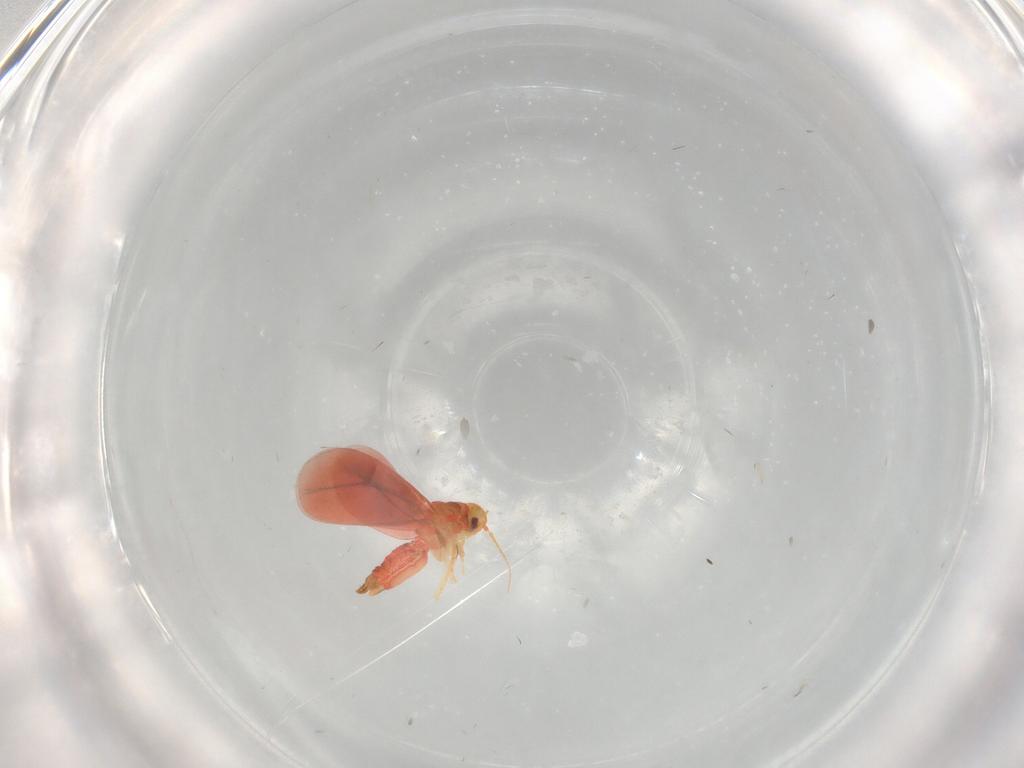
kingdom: Animalia
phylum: Arthropoda
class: Insecta
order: Hemiptera
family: Aleyrodidae
